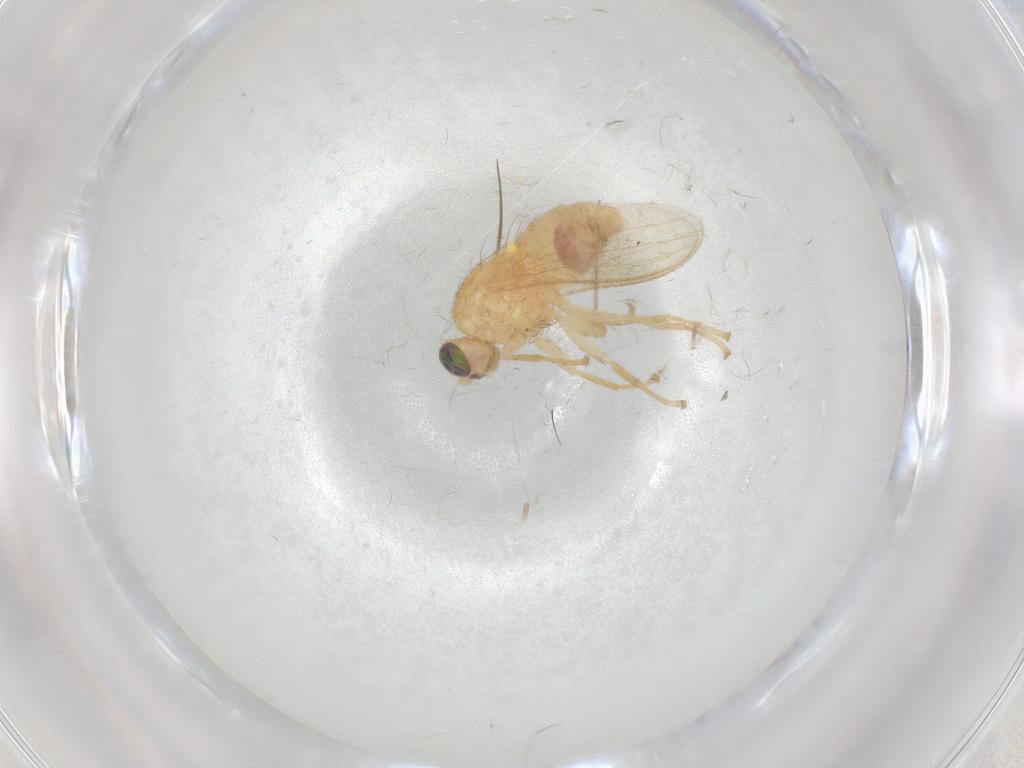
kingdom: Animalia
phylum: Arthropoda
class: Insecta
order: Diptera
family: Chyromyidae
